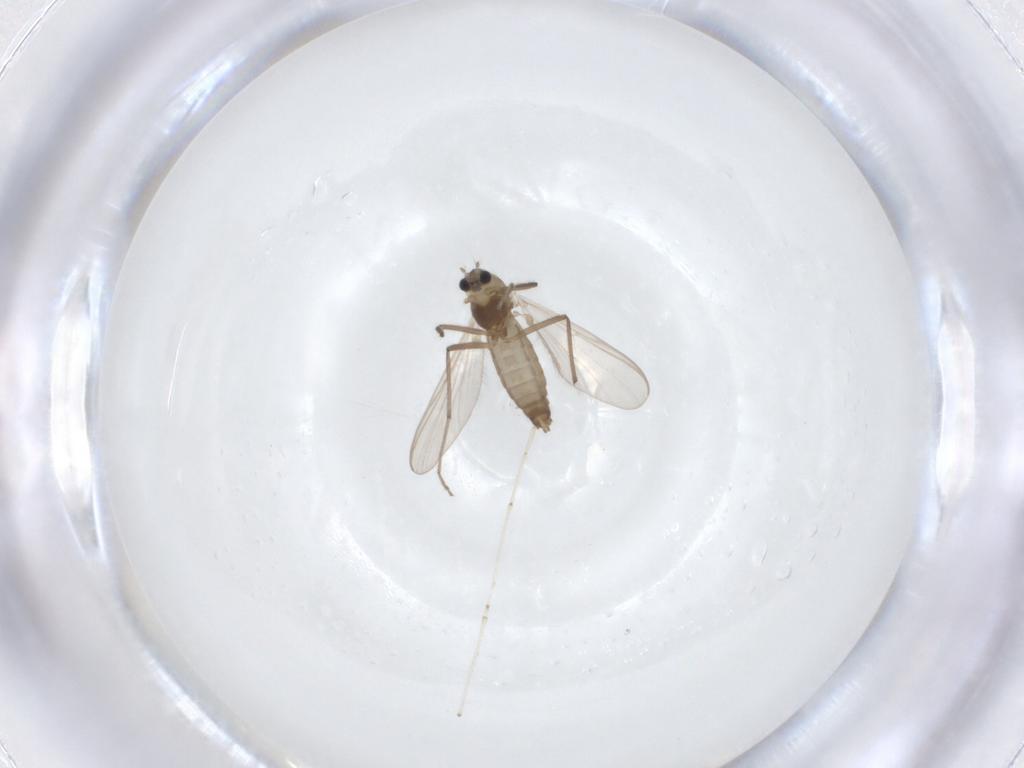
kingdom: Animalia
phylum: Arthropoda
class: Insecta
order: Diptera
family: Chironomidae
